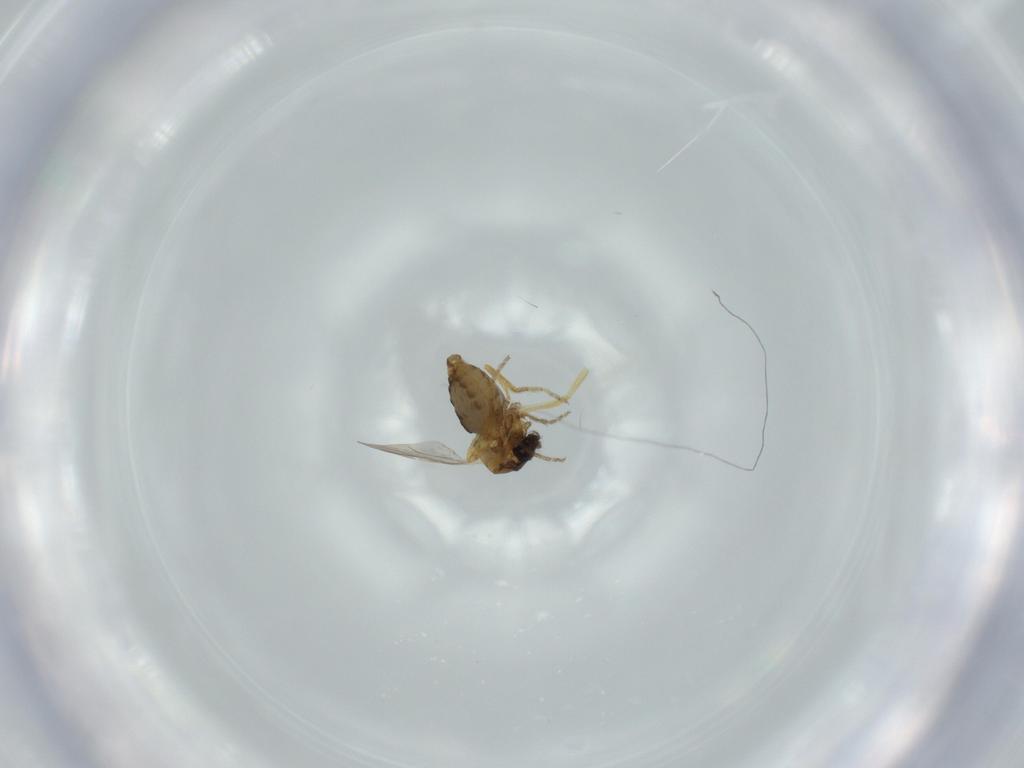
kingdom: Animalia
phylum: Arthropoda
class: Insecta
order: Diptera
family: Ceratopogonidae
